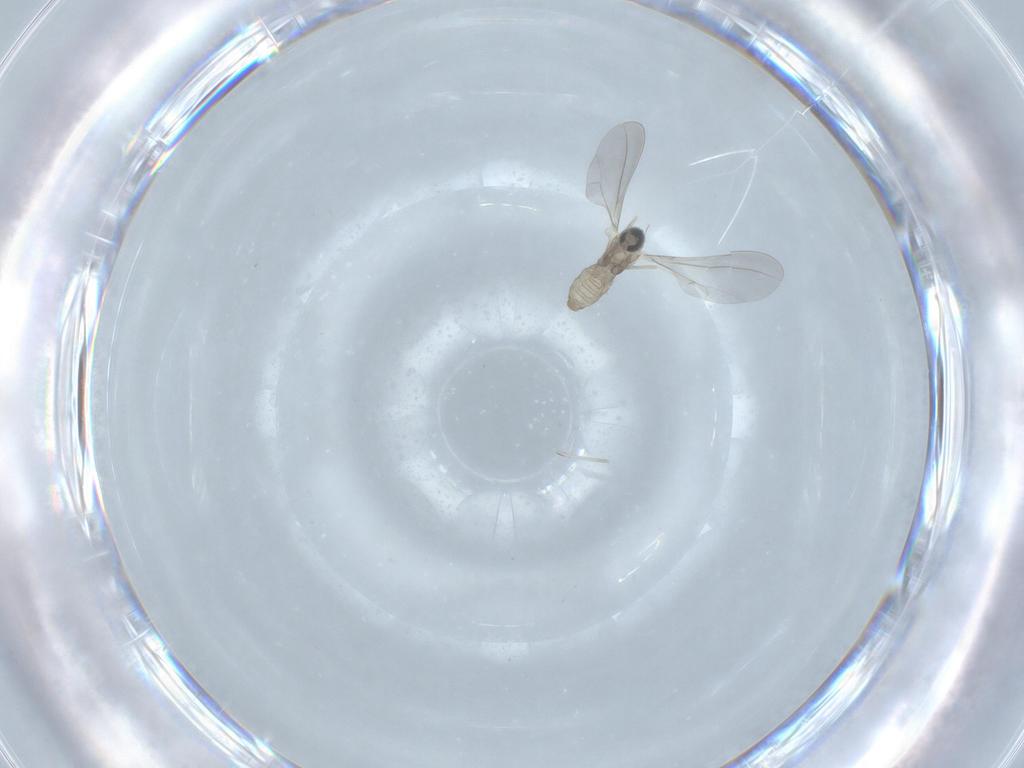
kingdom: Animalia
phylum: Arthropoda
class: Insecta
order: Diptera
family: Cecidomyiidae
